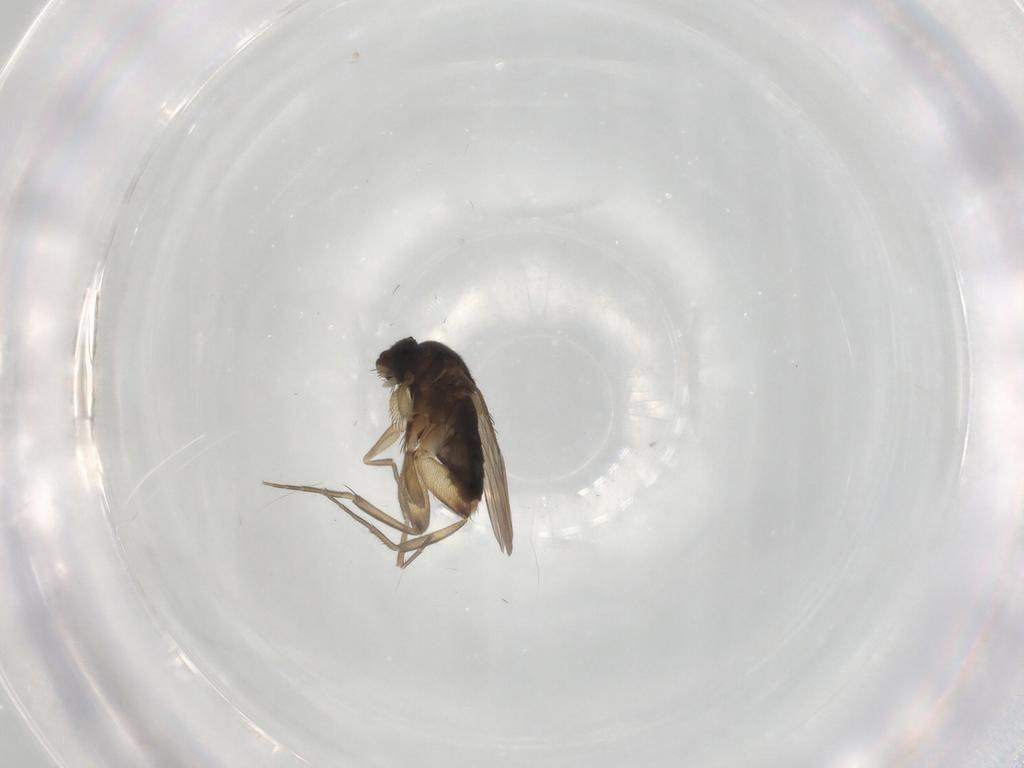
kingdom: Animalia
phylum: Arthropoda
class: Insecta
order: Diptera
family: Phoridae
